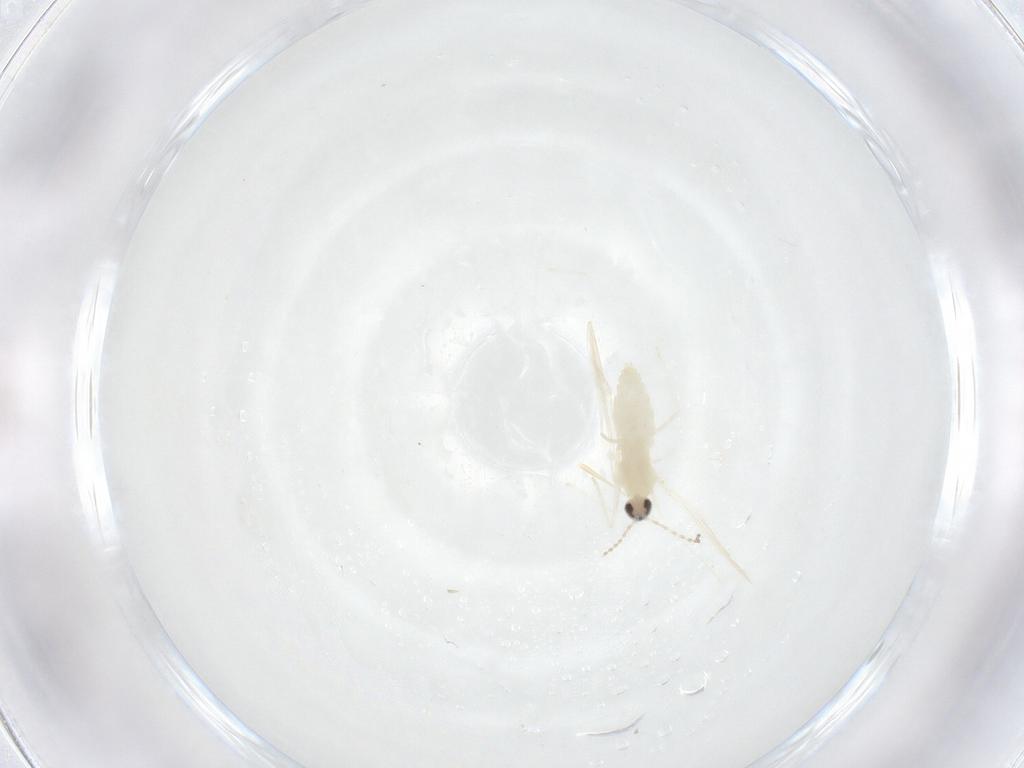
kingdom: Animalia
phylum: Arthropoda
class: Insecta
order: Diptera
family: Cecidomyiidae
